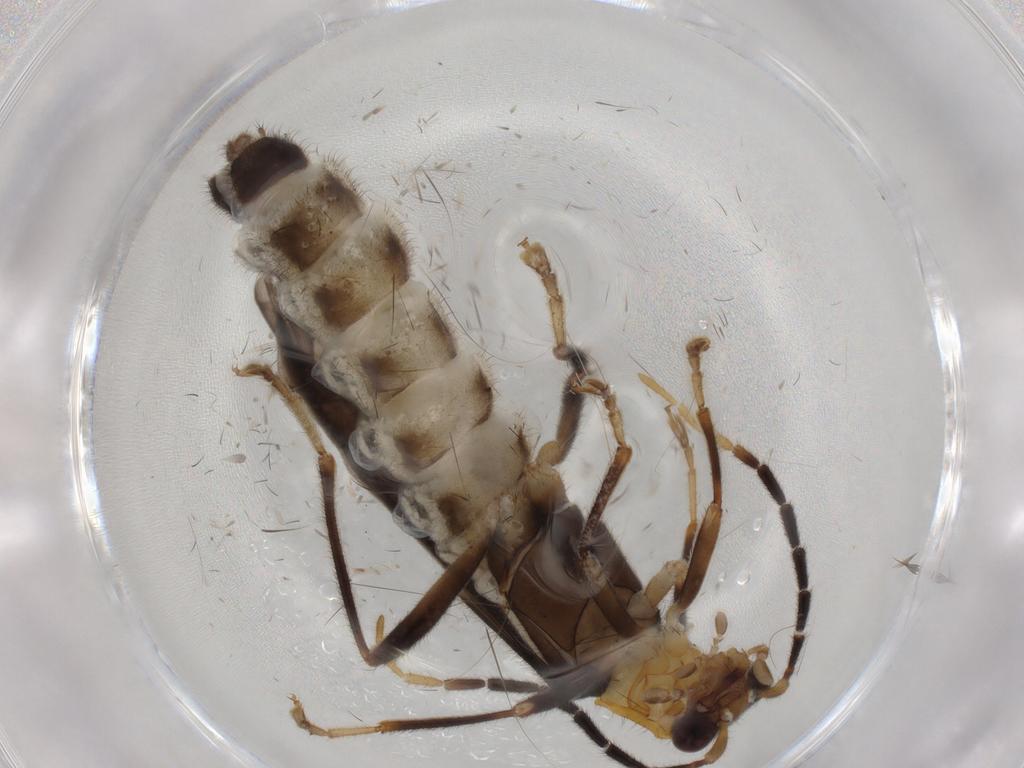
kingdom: Animalia
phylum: Arthropoda
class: Insecta
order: Coleoptera
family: Cantharidae
